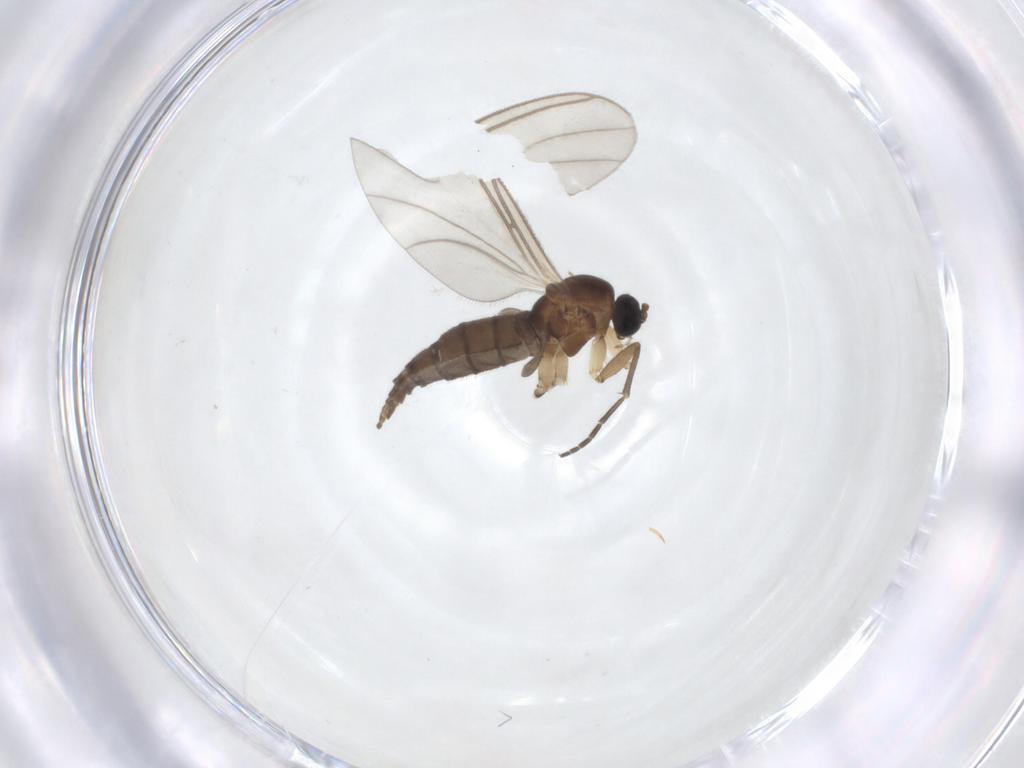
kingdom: Animalia
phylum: Arthropoda
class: Insecta
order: Diptera
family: Sciaridae
